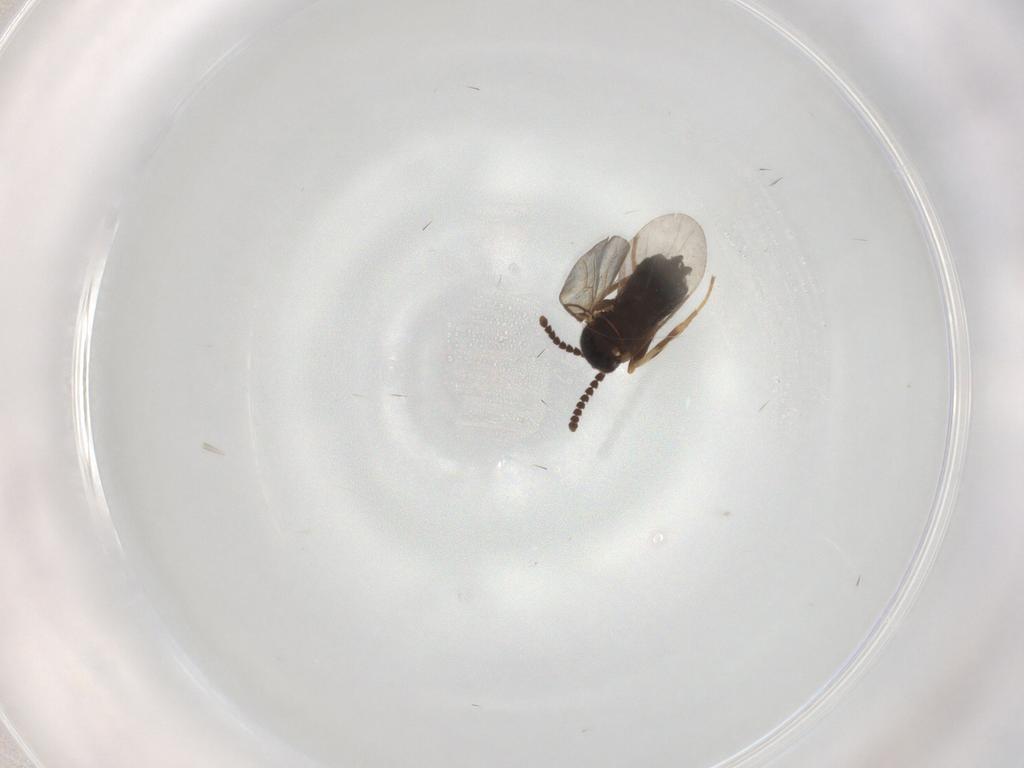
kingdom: Animalia
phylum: Arthropoda
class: Insecta
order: Diptera
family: Scatopsidae
